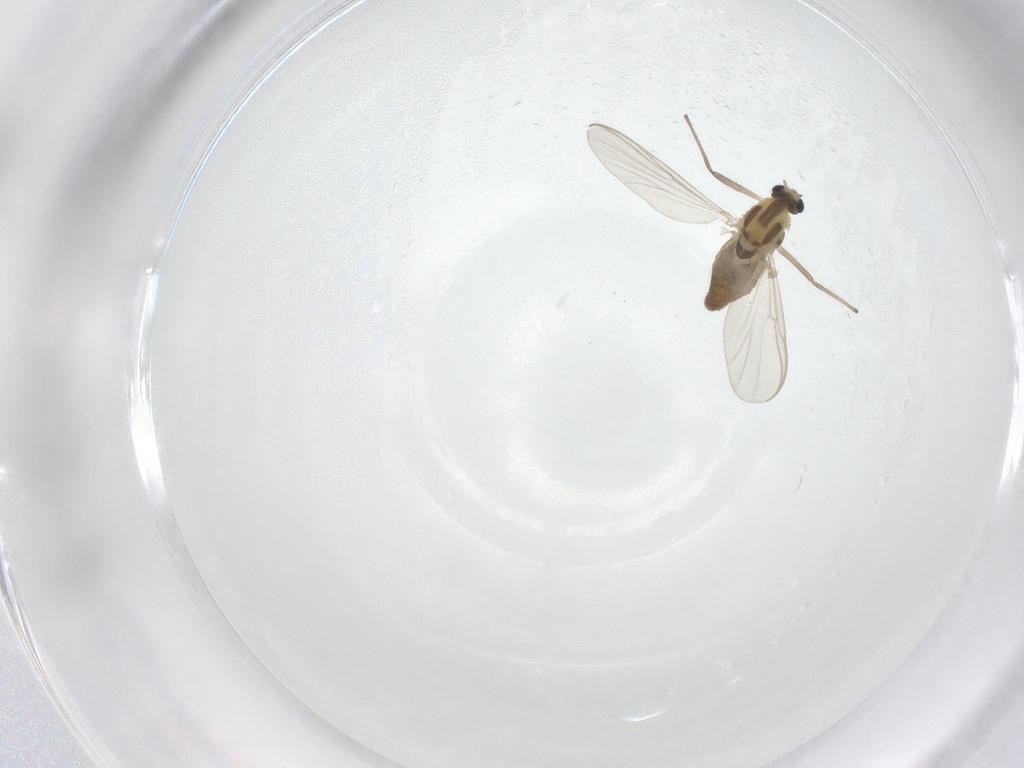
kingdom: Animalia
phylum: Arthropoda
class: Insecta
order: Diptera
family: Chironomidae
